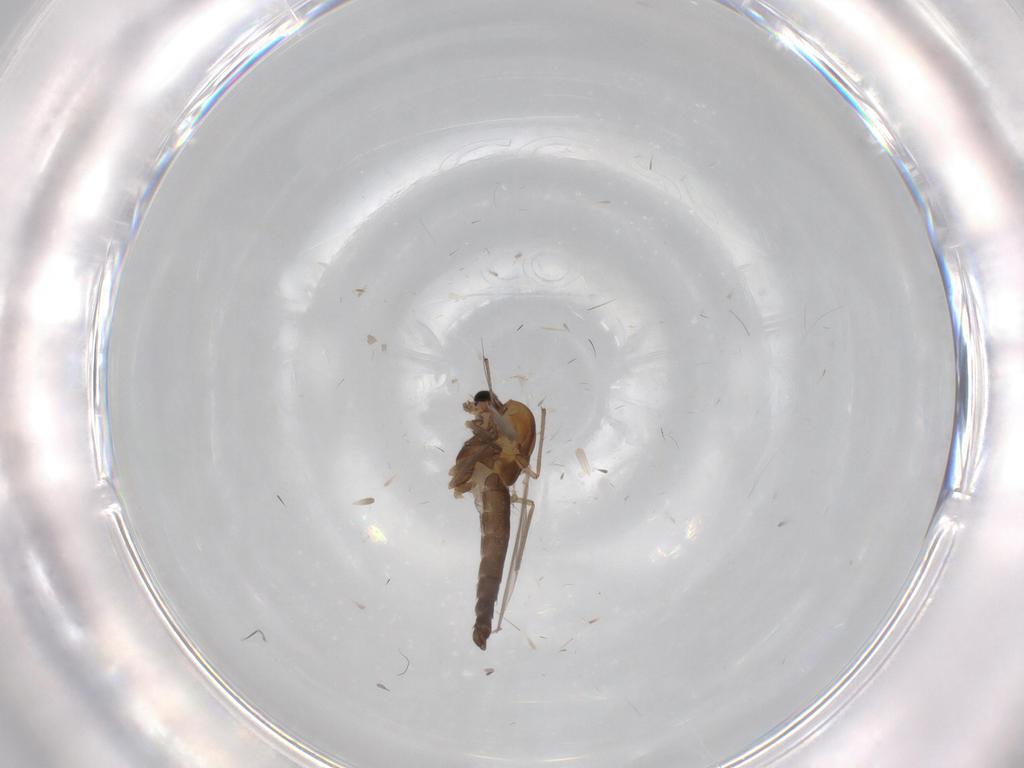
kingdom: Animalia
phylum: Arthropoda
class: Insecta
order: Diptera
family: Chironomidae
